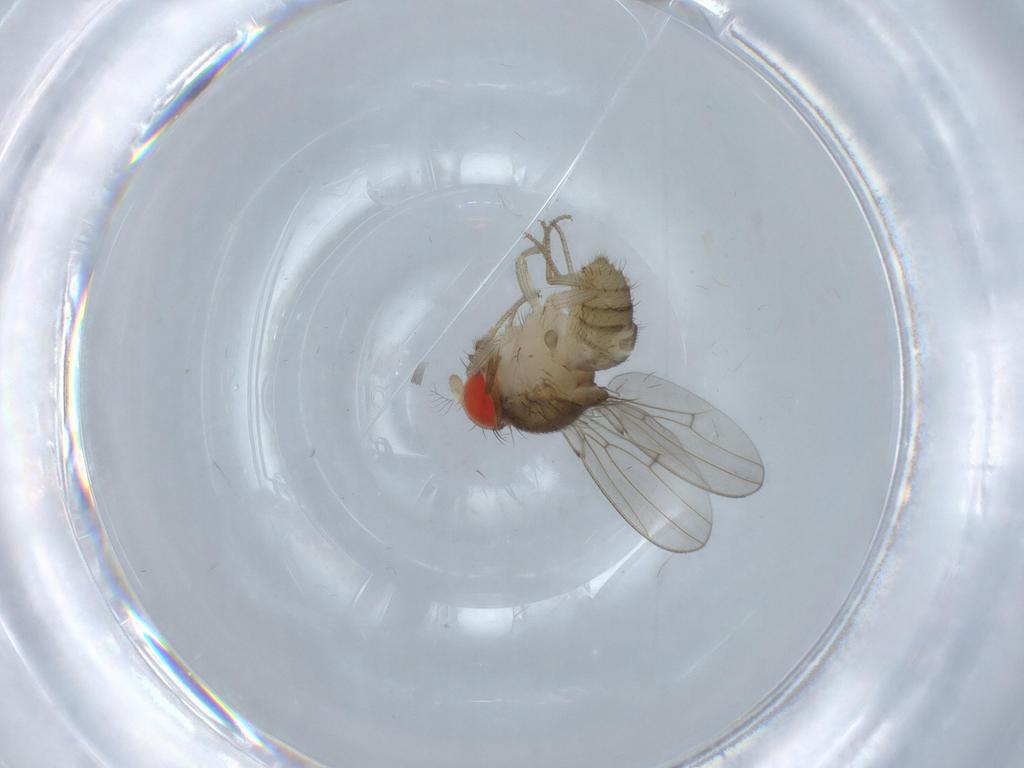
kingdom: Animalia
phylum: Arthropoda
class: Insecta
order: Diptera
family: Drosophilidae
